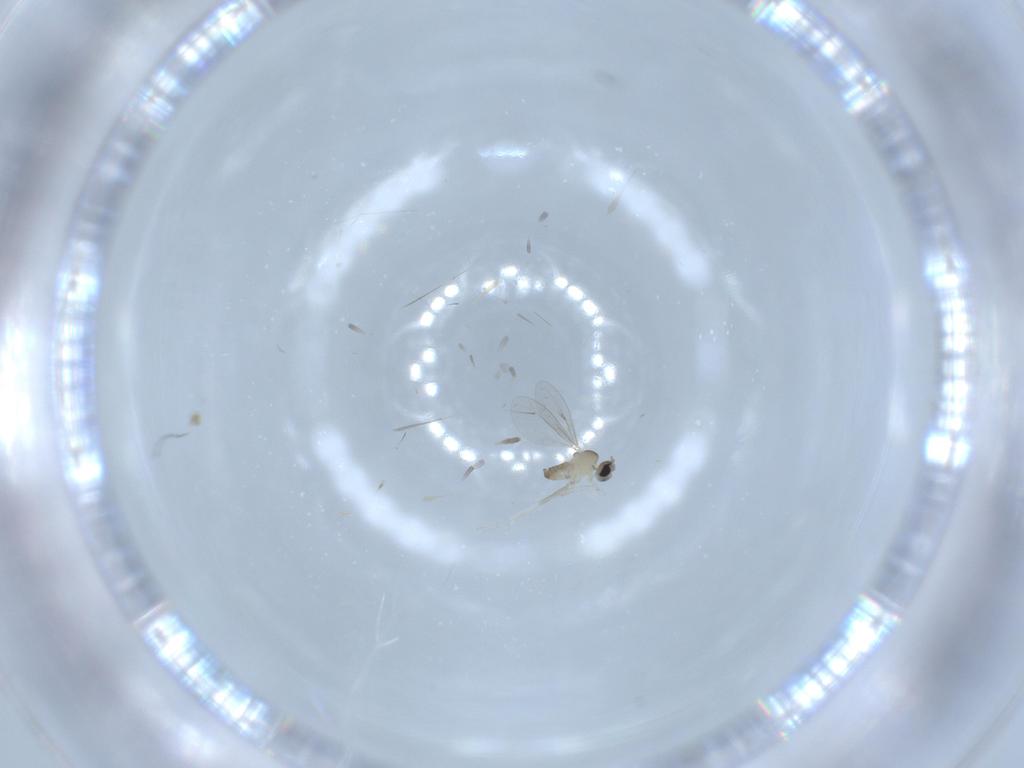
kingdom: Animalia
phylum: Arthropoda
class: Insecta
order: Diptera
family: Cecidomyiidae
